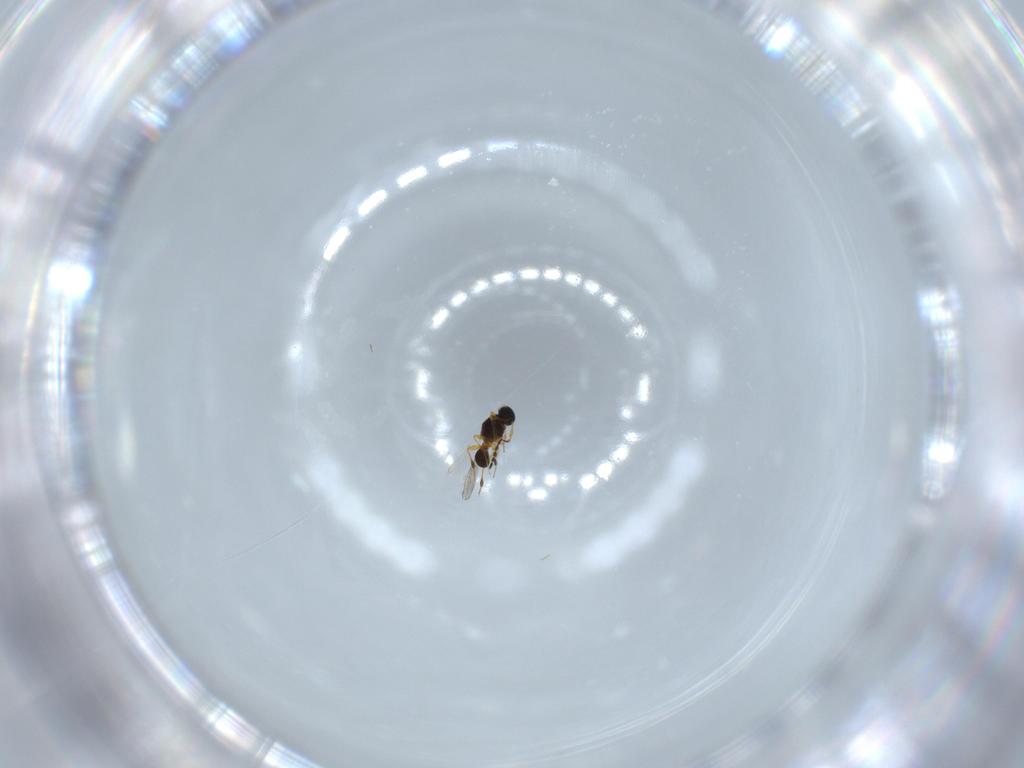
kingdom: Animalia
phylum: Arthropoda
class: Insecta
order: Hymenoptera
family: Platygastridae
